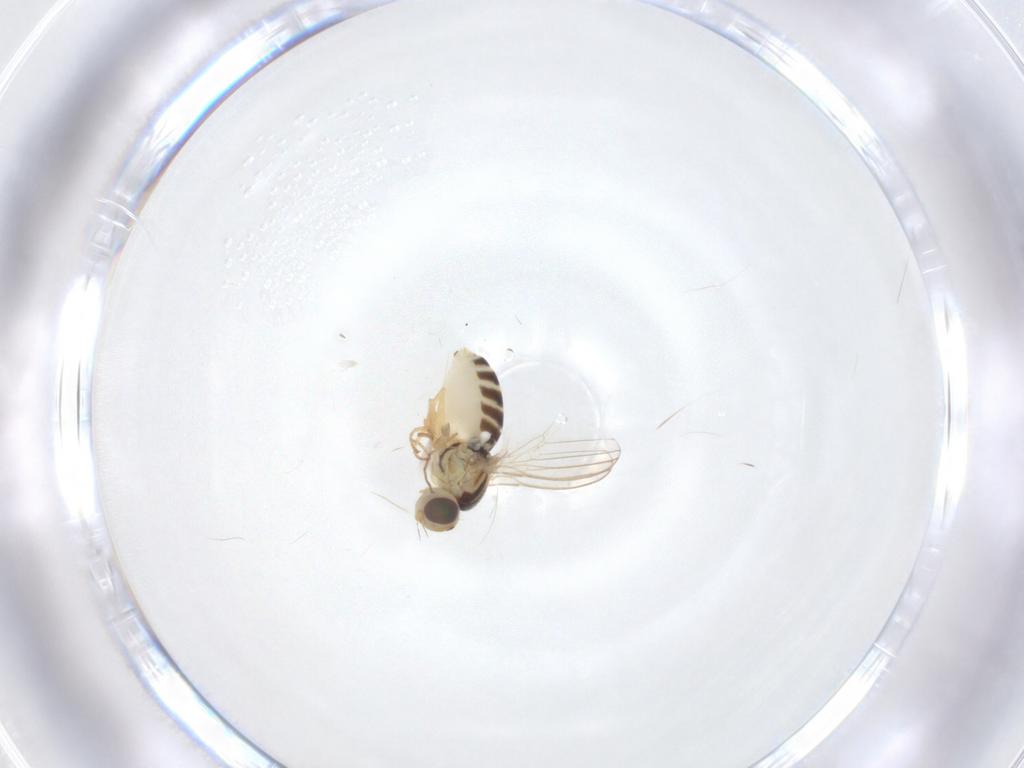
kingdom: Animalia
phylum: Arthropoda
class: Insecta
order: Diptera
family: Chyromyidae
